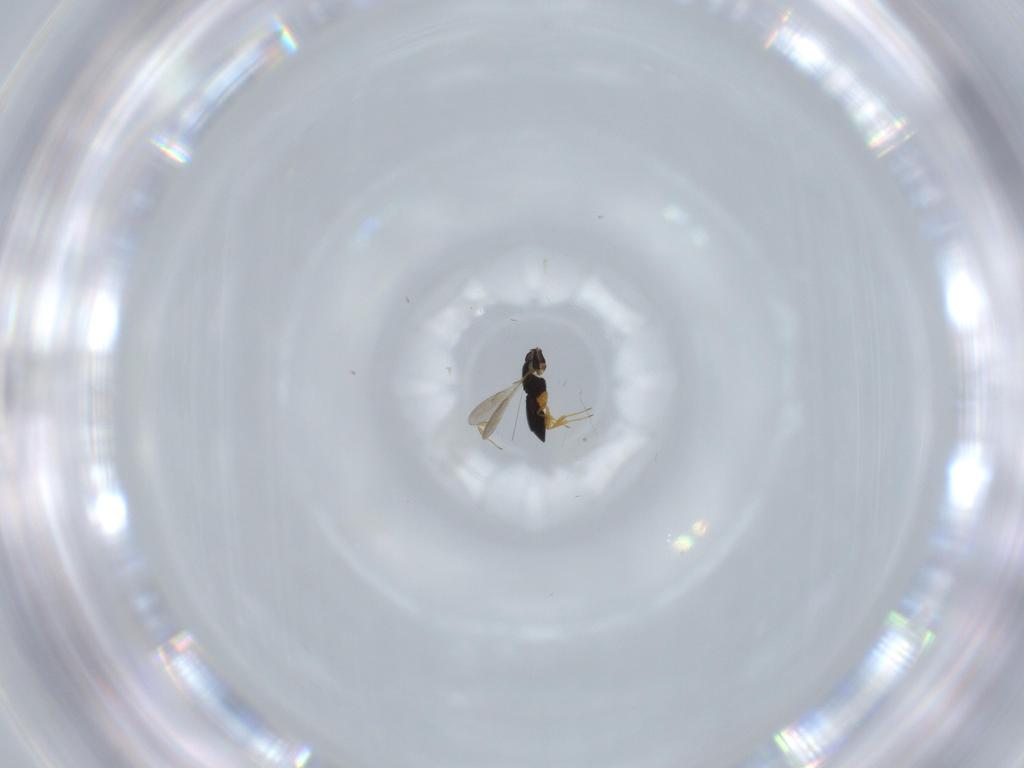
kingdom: Animalia
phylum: Arthropoda
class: Insecta
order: Hymenoptera
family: Scelionidae
